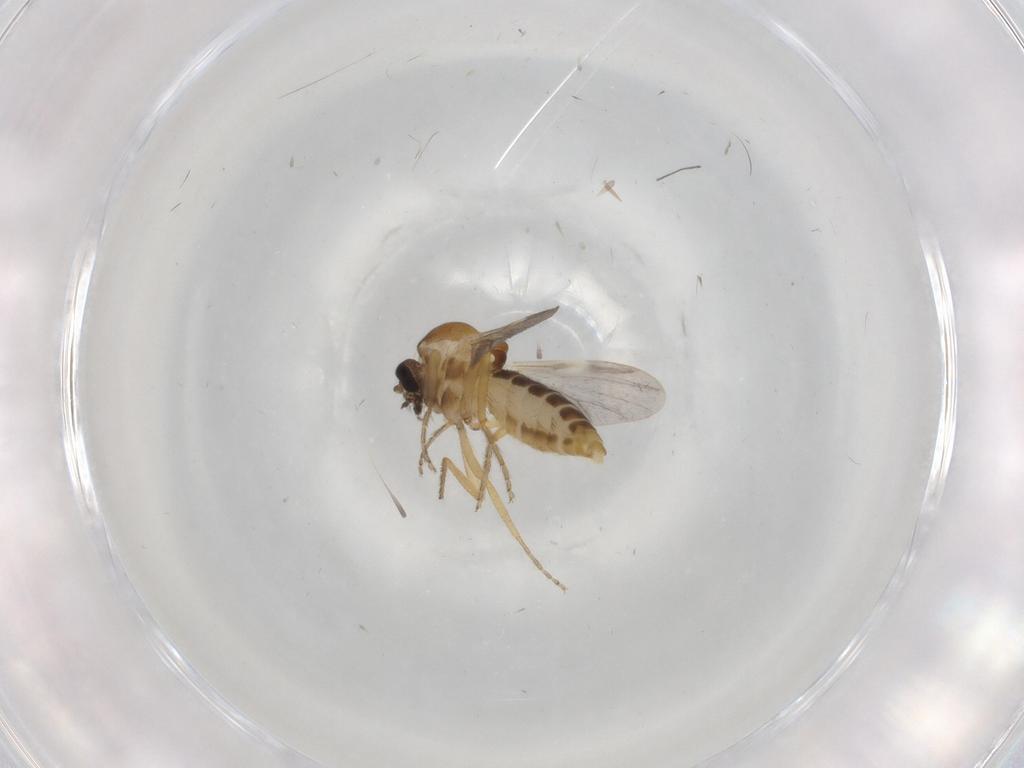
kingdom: Animalia
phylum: Arthropoda
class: Insecta
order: Diptera
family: Ceratopogonidae
